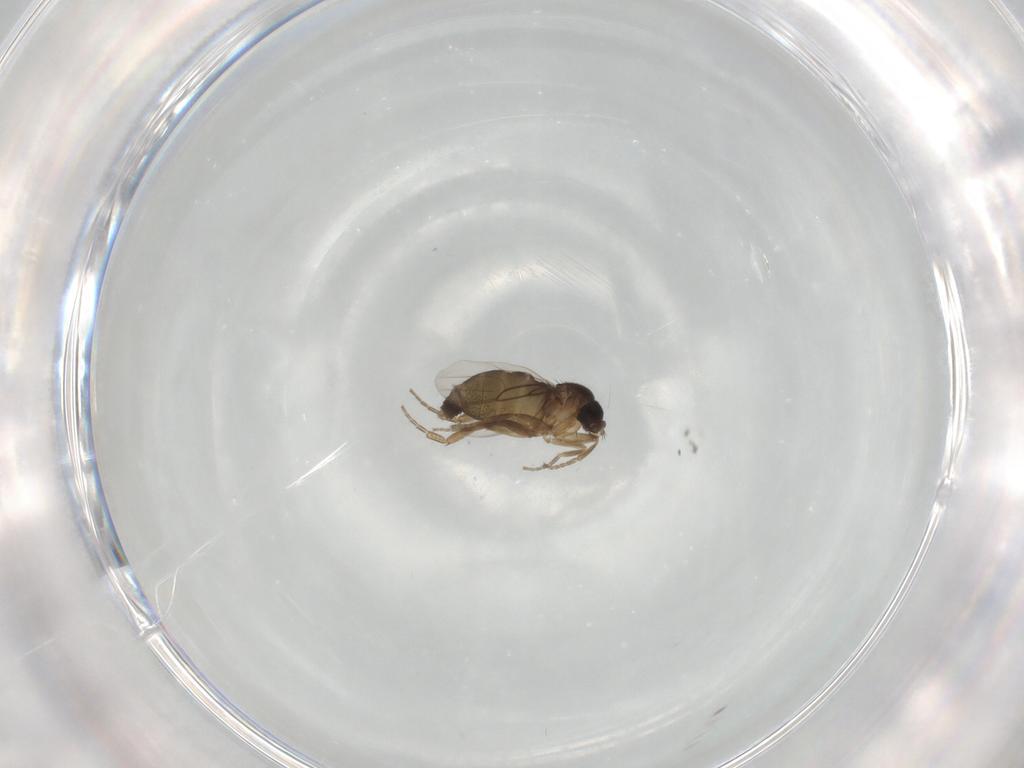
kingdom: Animalia
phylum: Arthropoda
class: Insecta
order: Diptera
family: Phoridae
